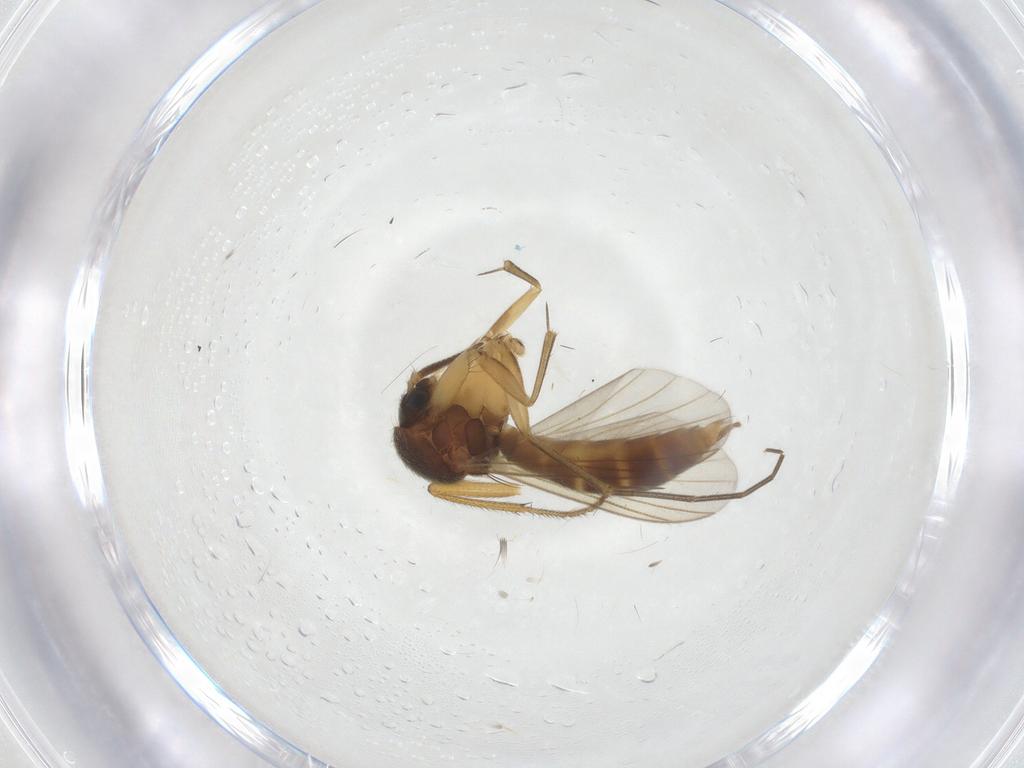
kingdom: Animalia
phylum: Arthropoda
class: Insecta
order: Diptera
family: Drosophilidae
